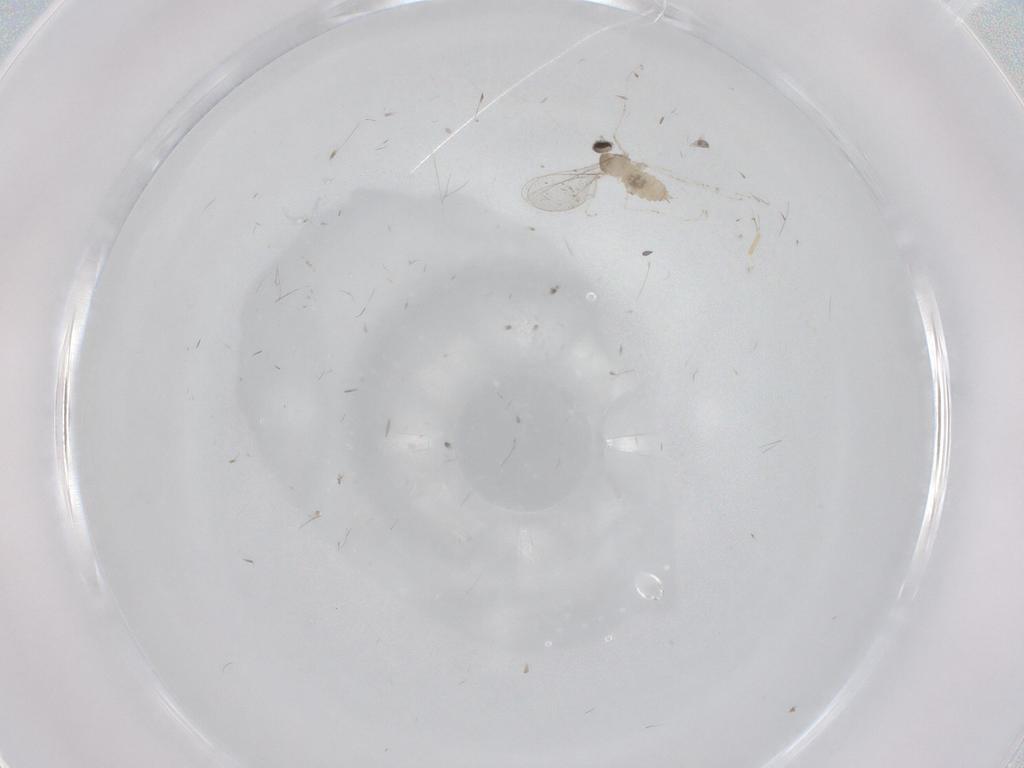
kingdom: Animalia
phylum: Arthropoda
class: Insecta
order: Diptera
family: Cecidomyiidae
